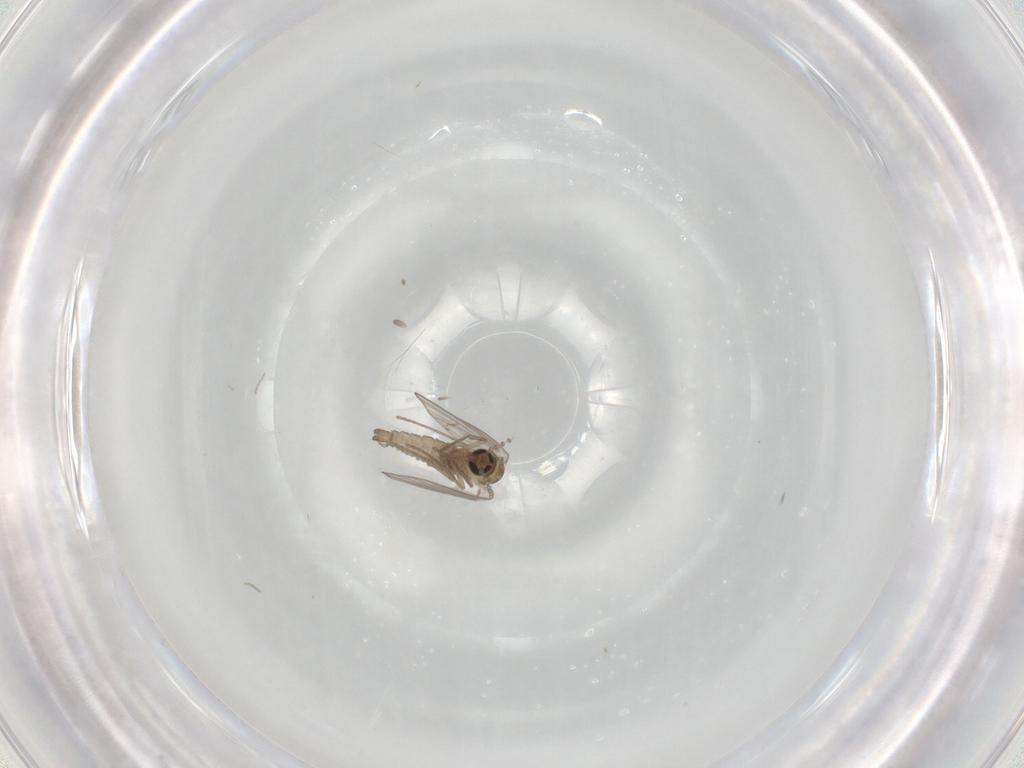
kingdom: Animalia
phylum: Arthropoda
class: Insecta
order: Diptera
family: Psychodidae
